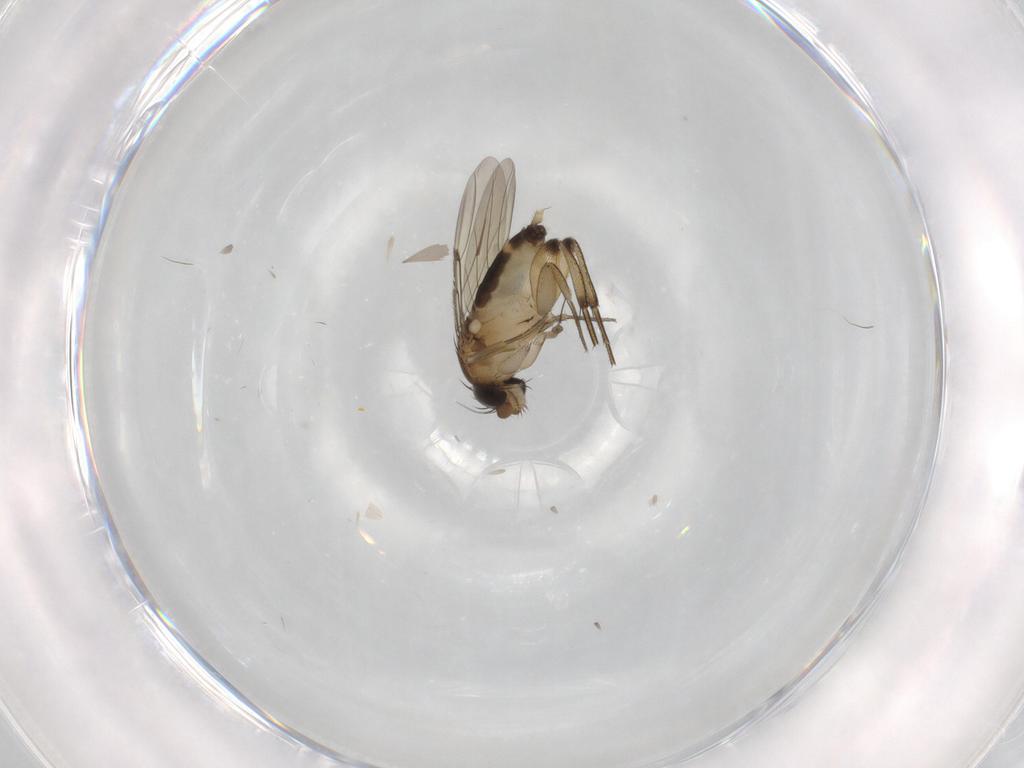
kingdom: Animalia
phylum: Arthropoda
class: Insecta
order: Diptera
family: Phoridae
